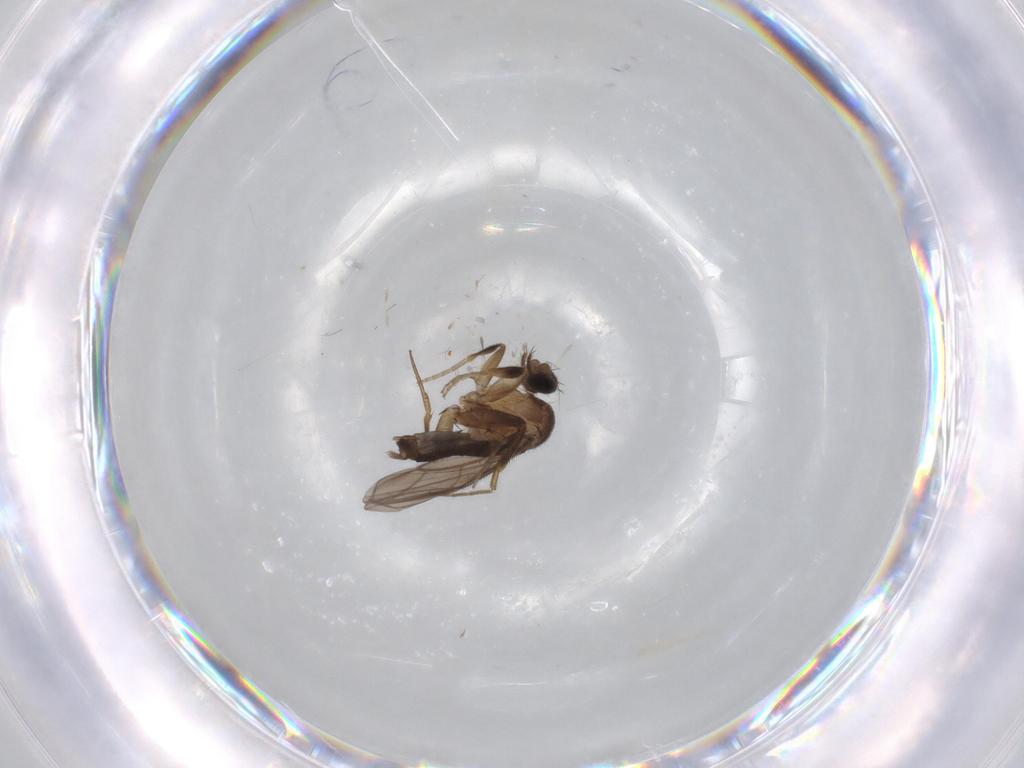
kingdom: Animalia
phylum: Arthropoda
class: Insecta
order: Diptera
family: Phoridae
